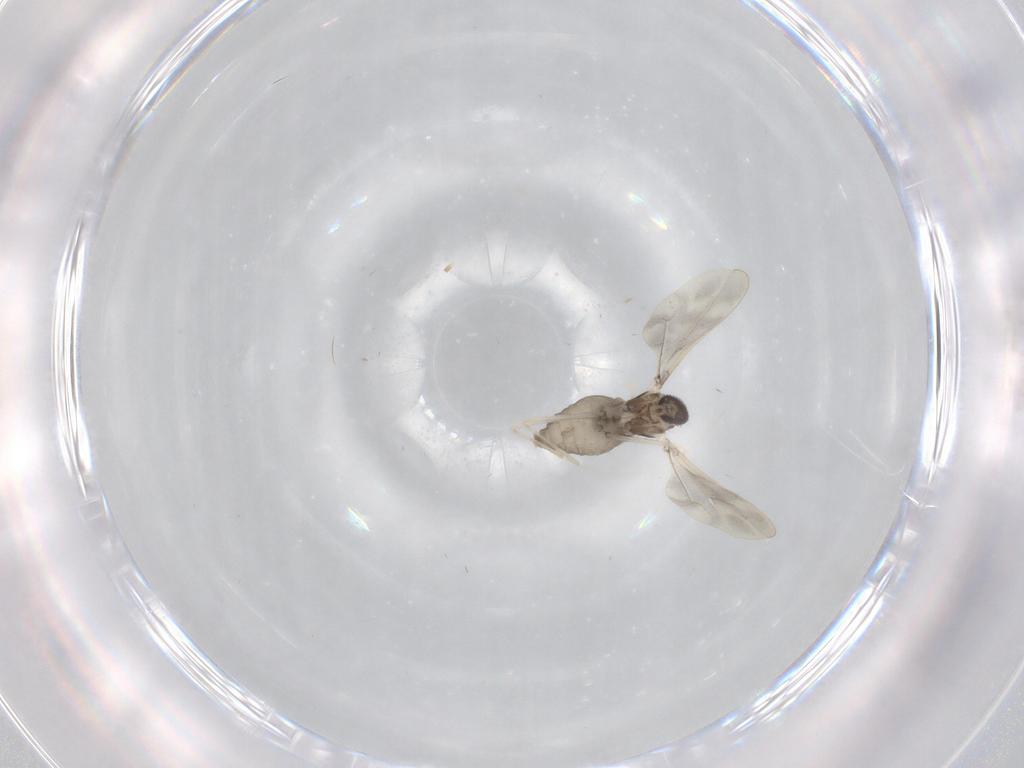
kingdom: Animalia
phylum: Arthropoda
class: Insecta
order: Diptera
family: Cecidomyiidae
